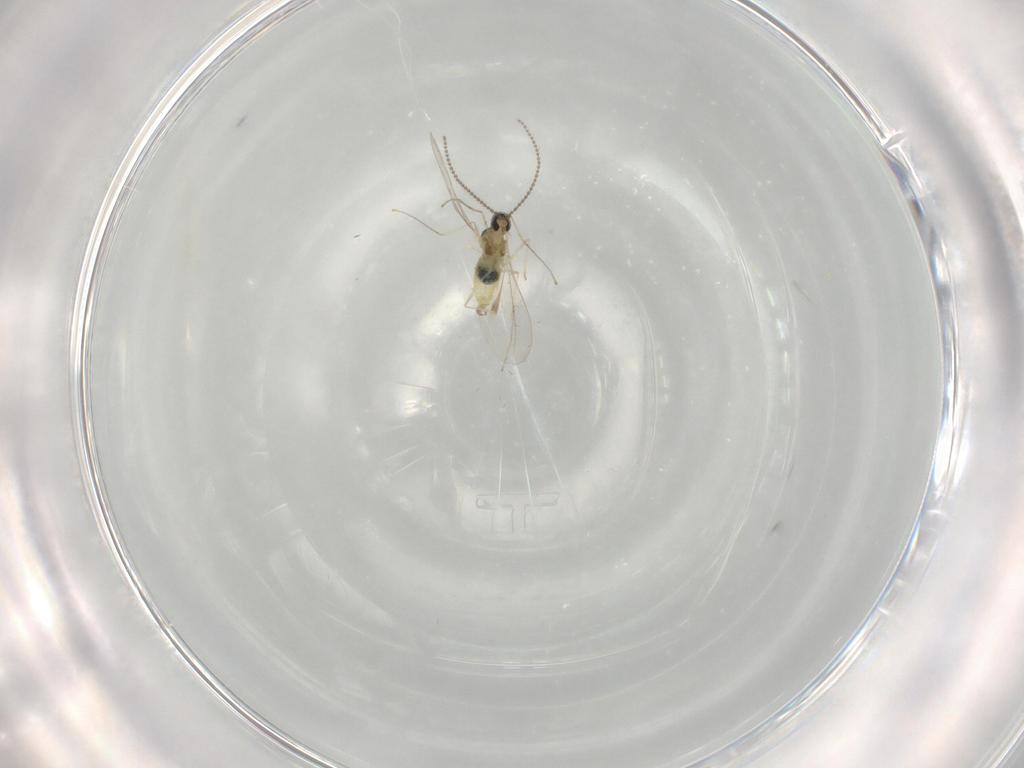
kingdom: Animalia
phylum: Arthropoda
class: Insecta
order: Diptera
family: Cecidomyiidae
